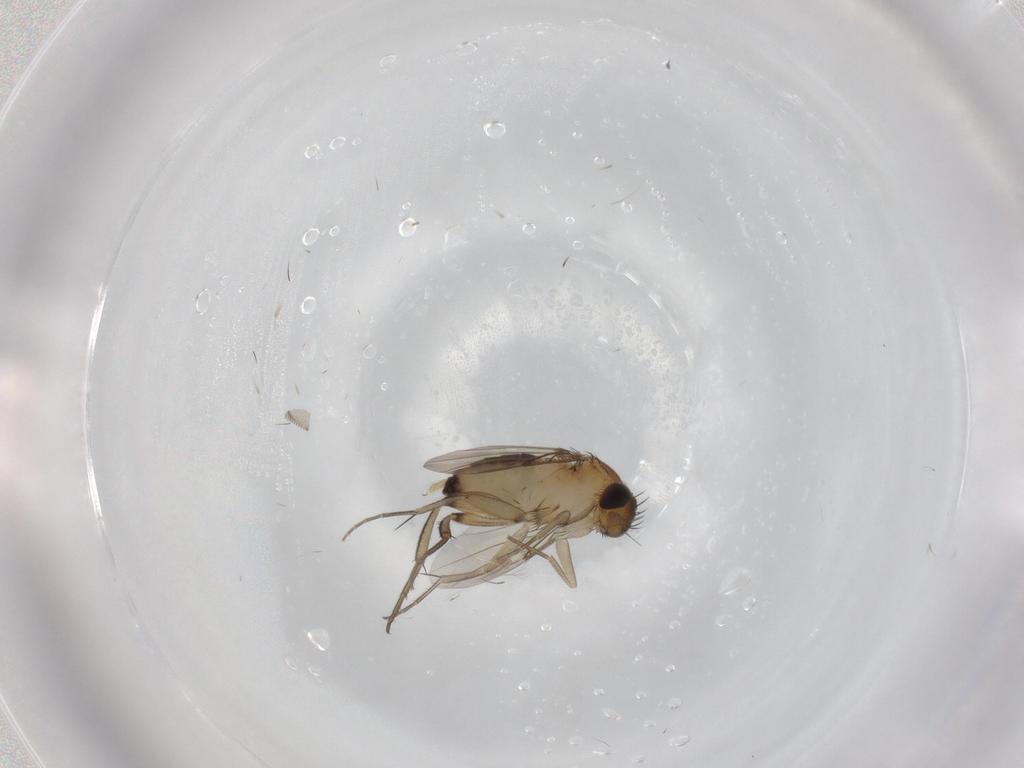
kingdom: Animalia
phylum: Arthropoda
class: Insecta
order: Diptera
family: Phoridae
